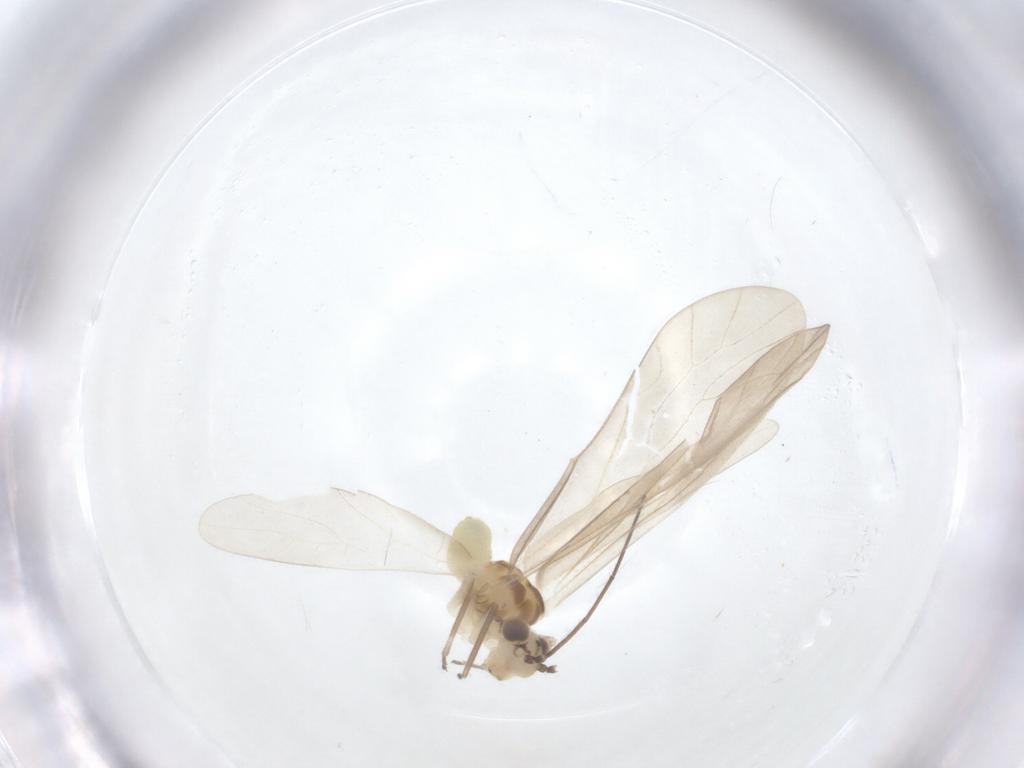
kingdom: Animalia
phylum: Arthropoda
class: Insecta
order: Psocodea
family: Caeciliusidae
